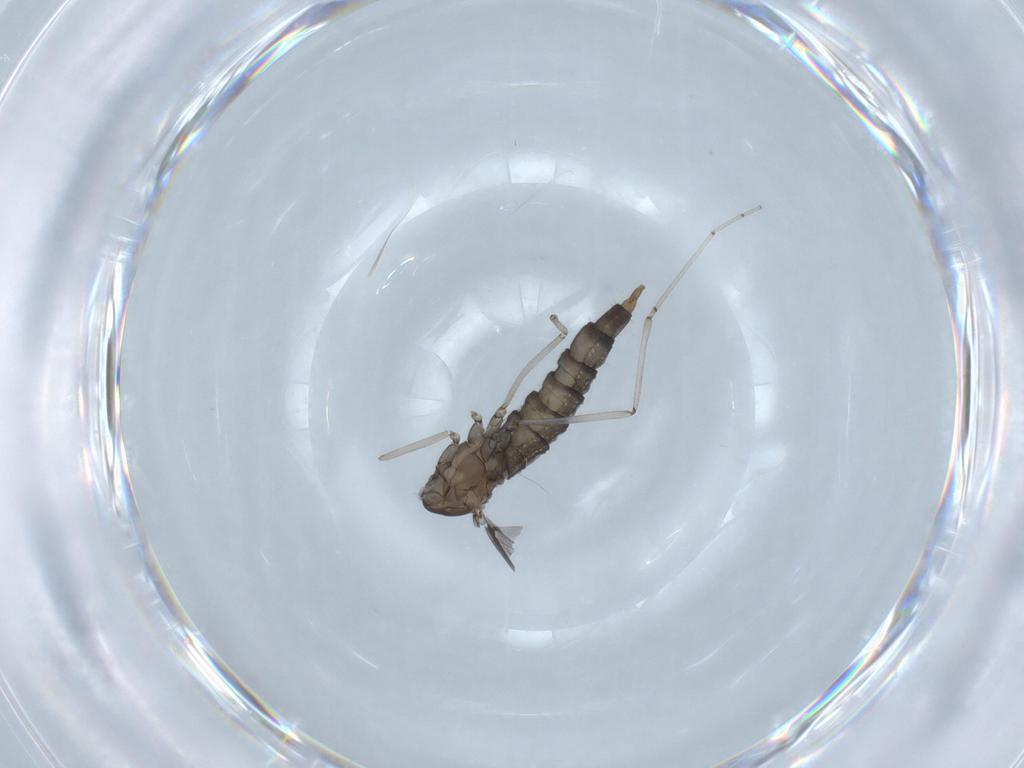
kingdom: Animalia
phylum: Arthropoda
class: Insecta
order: Diptera
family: Cecidomyiidae
